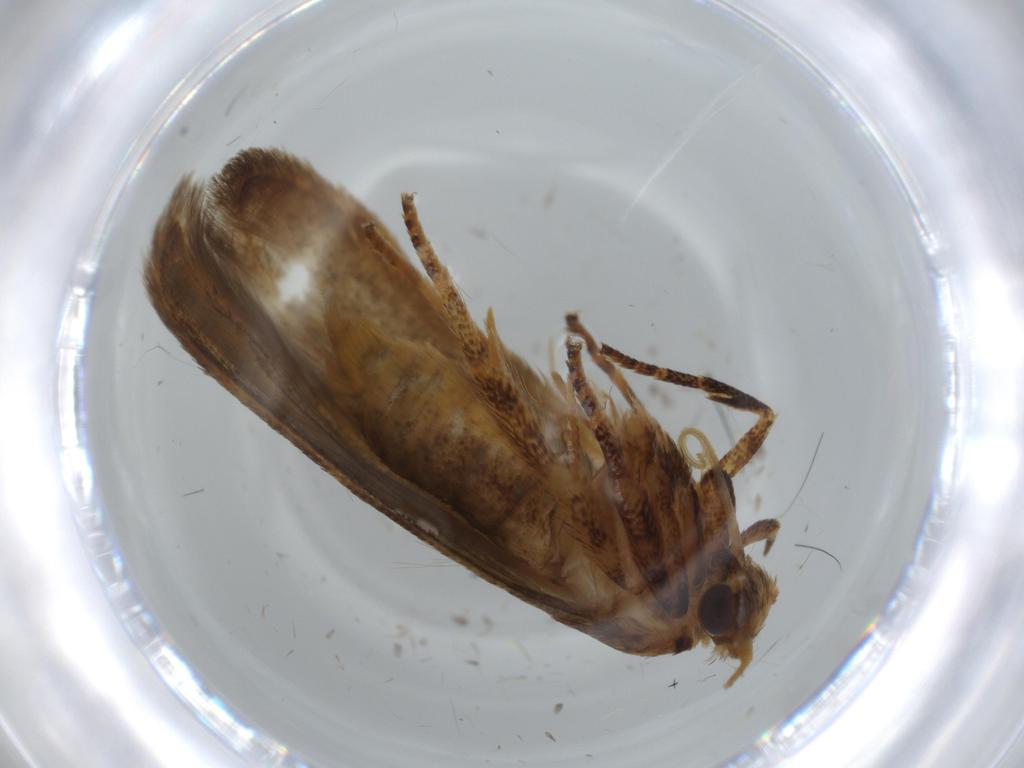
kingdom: Animalia
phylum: Arthropoda
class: Insecta
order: Lepidoptera
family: Coleophoridae
